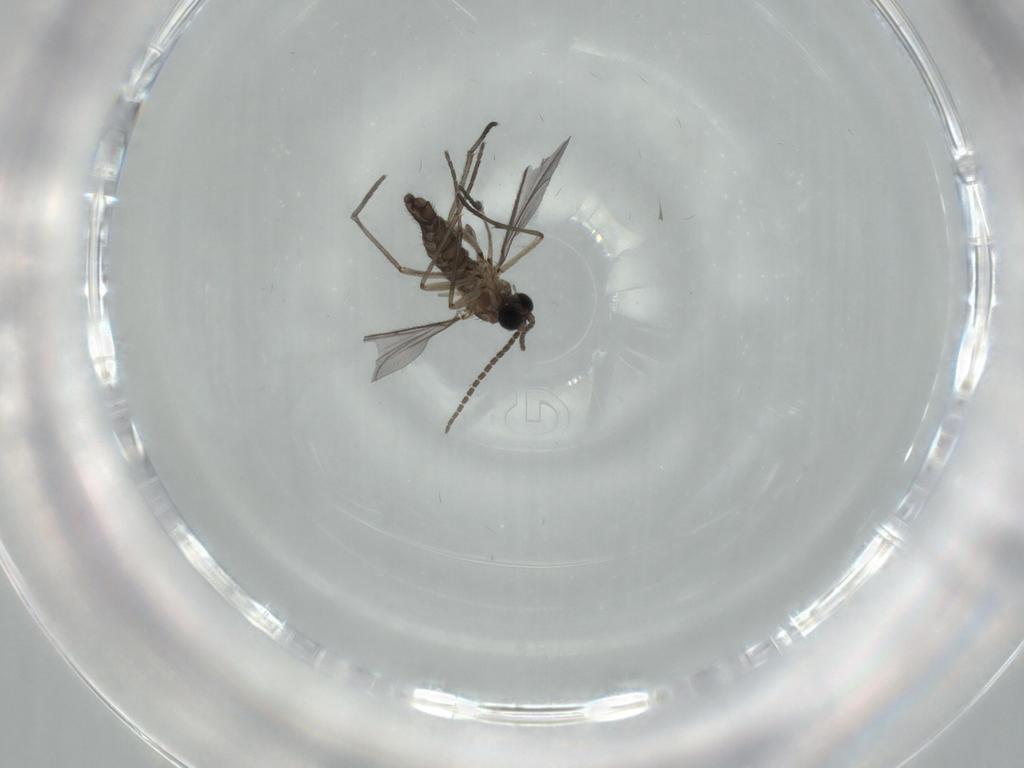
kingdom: Animalia
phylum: Arthropoda
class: Insecta
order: Diptera
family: Sciaridae
